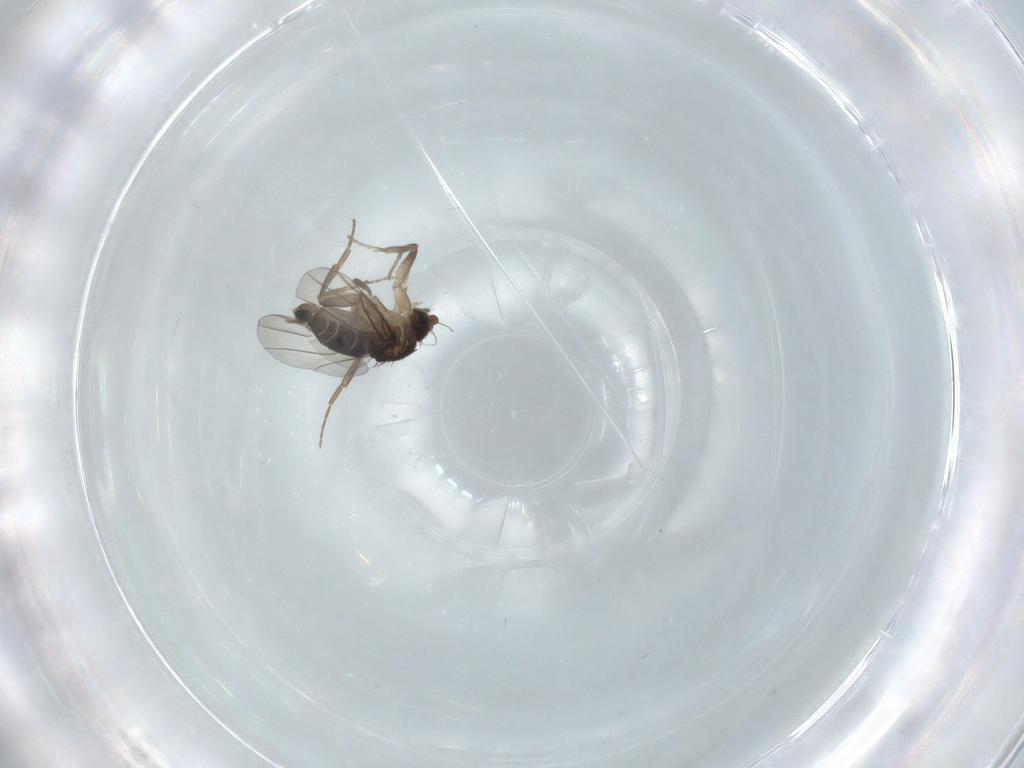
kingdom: Animalia
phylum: Arthropoda
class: Insecta
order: Diptera
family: Phoridae
